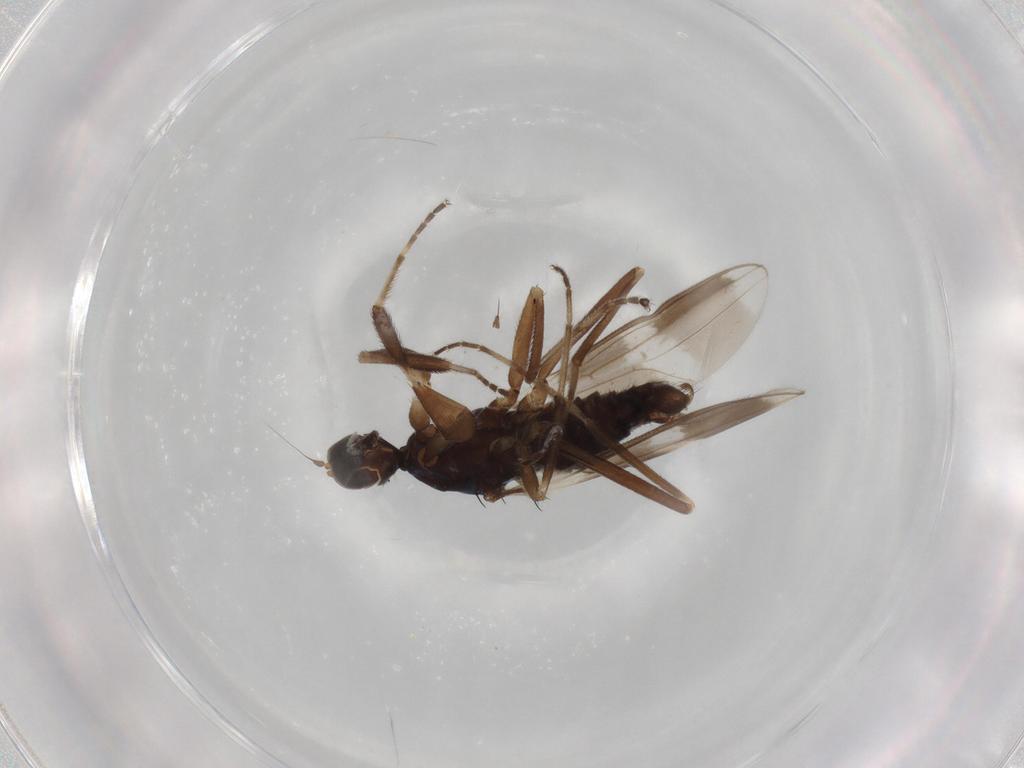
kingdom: Animalia
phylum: Arthropoda
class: Insecta
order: Diptera
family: Hybotidae
